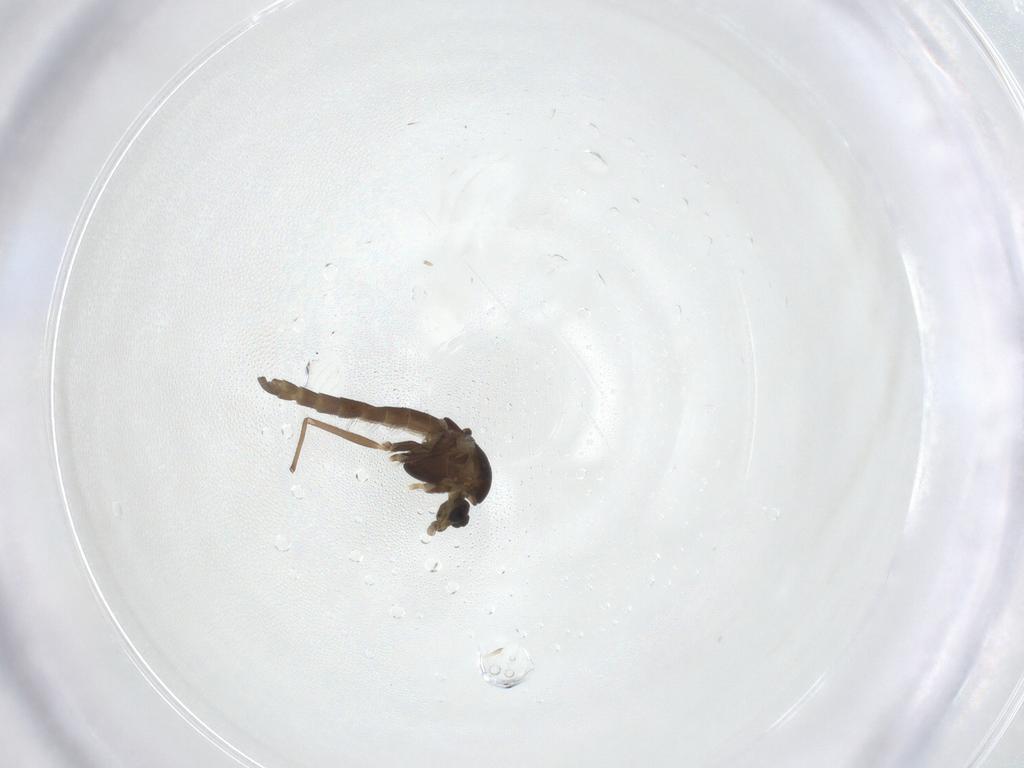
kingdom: Animalia
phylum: Arthropoda
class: Insecta
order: Diptera
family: Chironomidae
